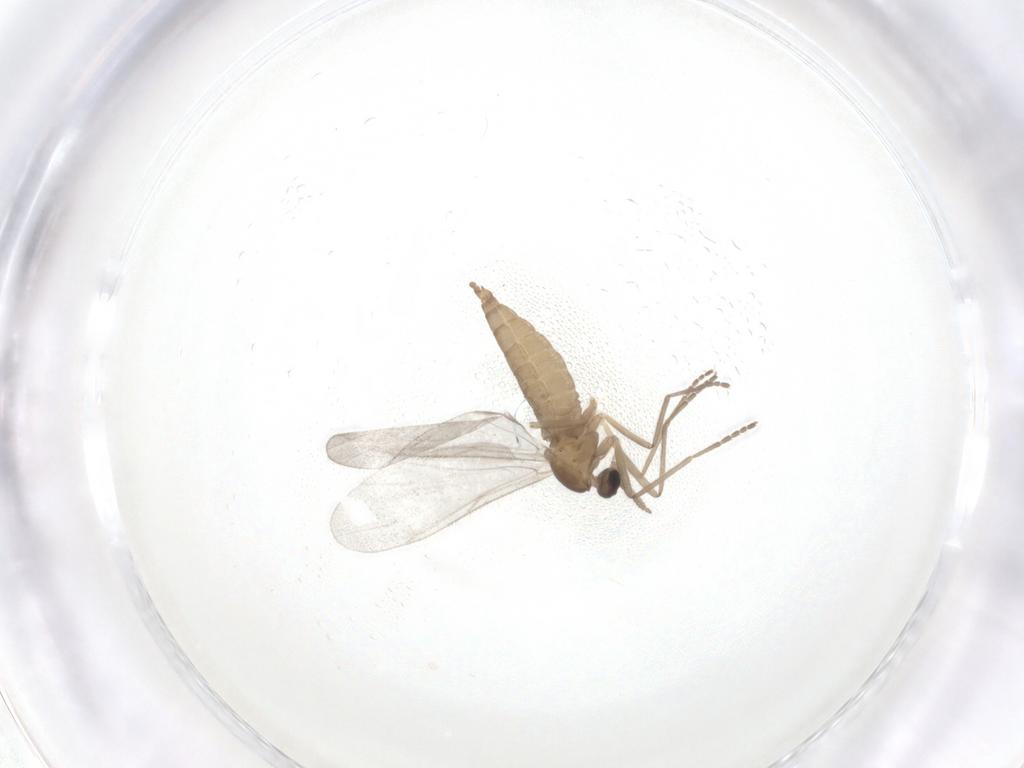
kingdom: Animalia
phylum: Arthropoda
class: Insecta
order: Diptera
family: Cecidomyiidae
